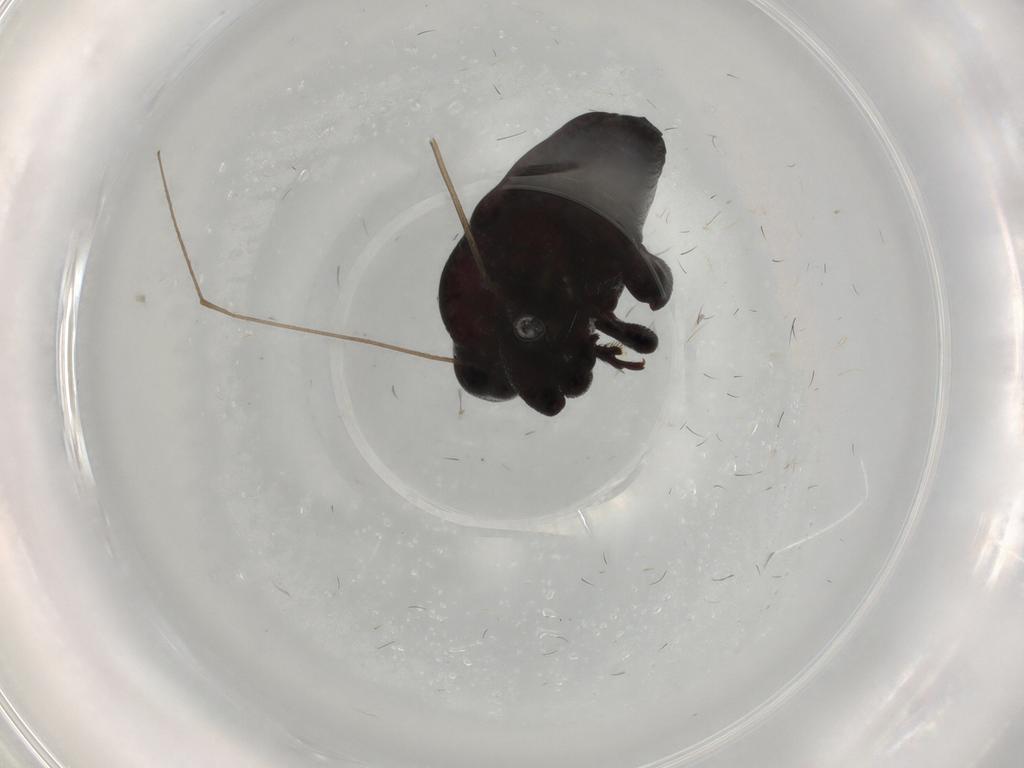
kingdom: Animalia
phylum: Arthropoda
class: Insecta
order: Coleoptera
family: Curculionidae
